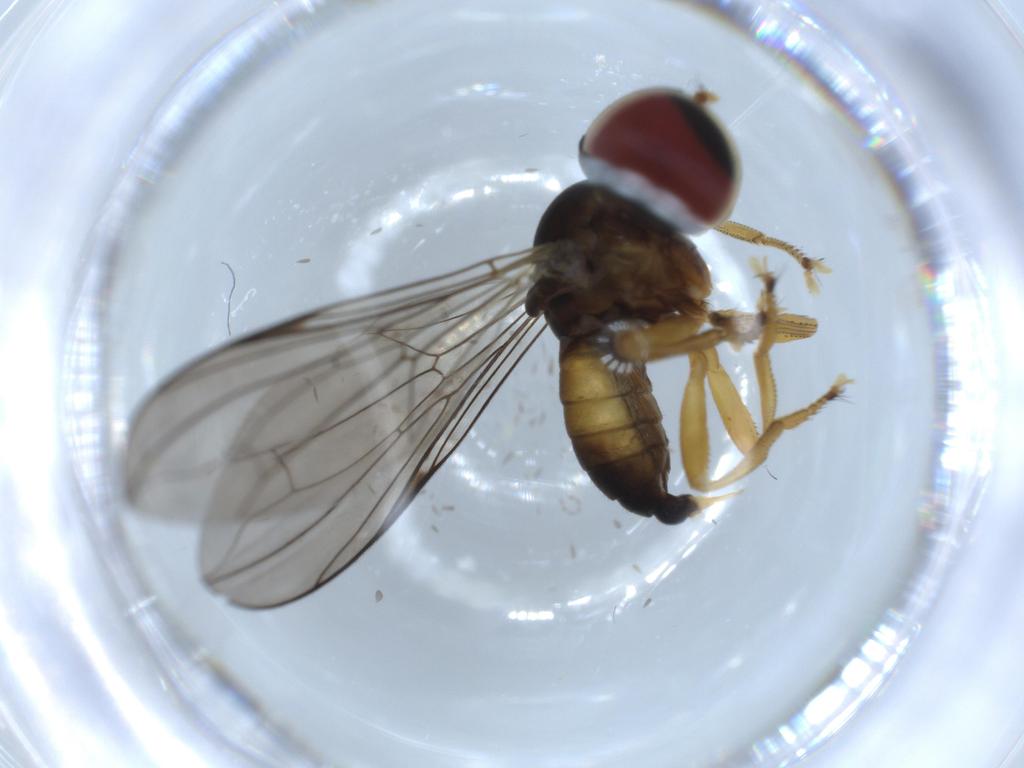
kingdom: Animalia
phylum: Arthropoda
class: Insecta
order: Diptera
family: Pipunculidae
